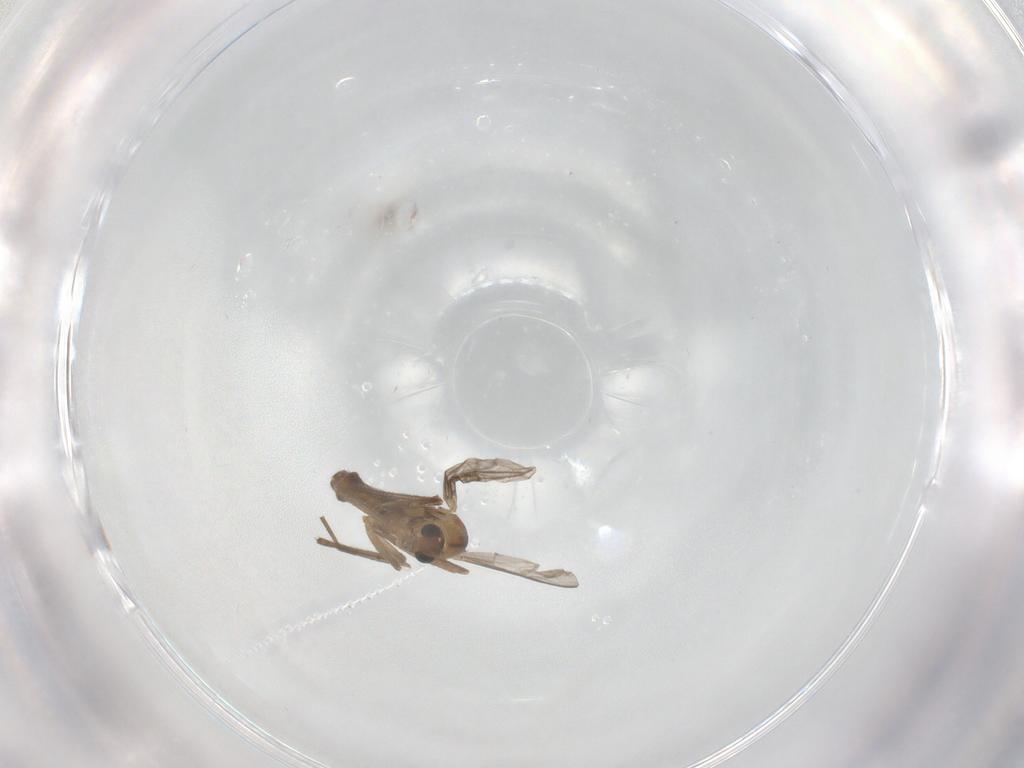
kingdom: Animalia
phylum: Arthropoda
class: Insecta
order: Diptera
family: Chironomidae
